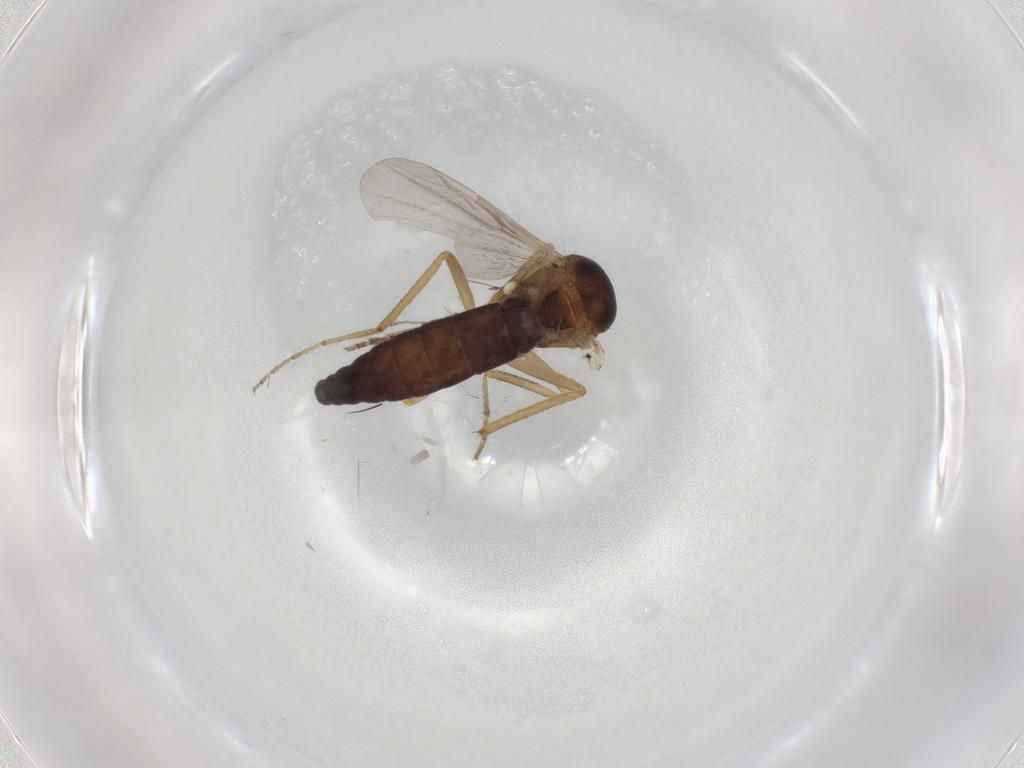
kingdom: Animalia
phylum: Arthropoda
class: Insecta
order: Diptera
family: Ceratopogonidae
